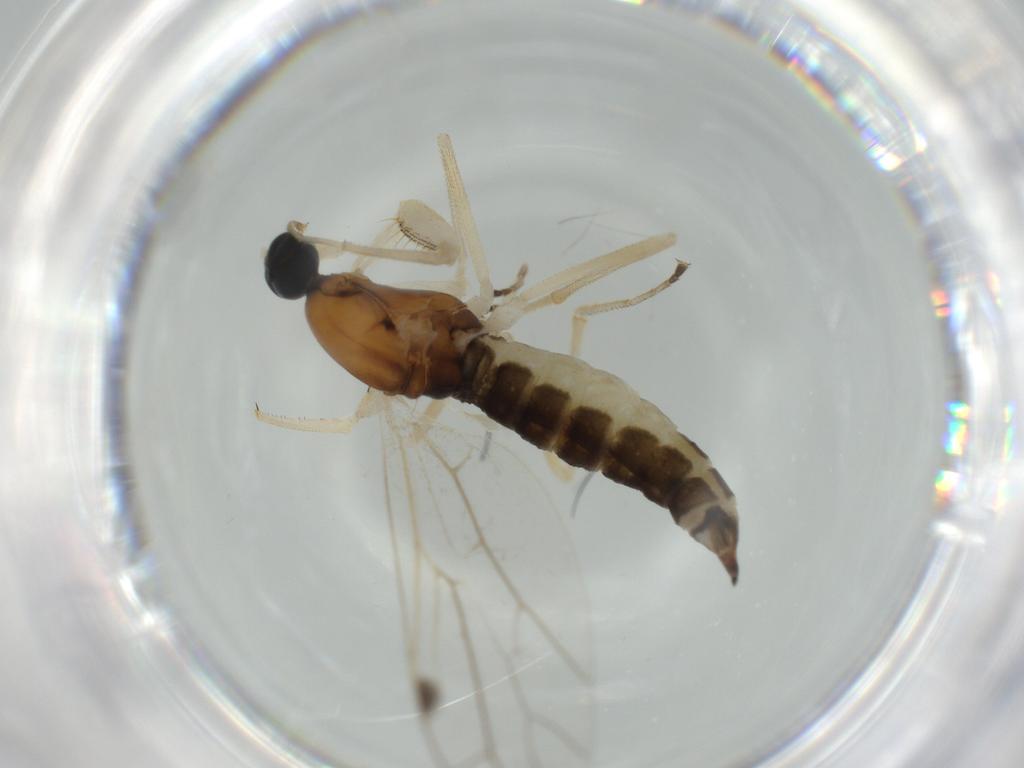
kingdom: Animalia
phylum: Arthropoda
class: Insecta
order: Diptera
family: Empididae
